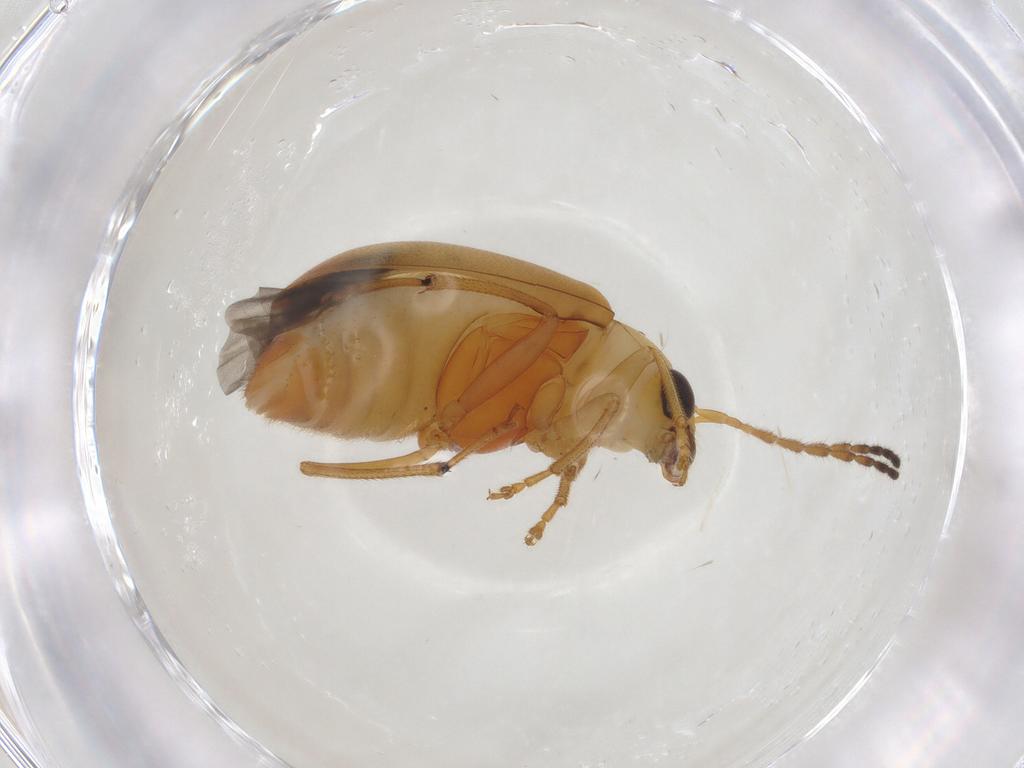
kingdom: Animalia
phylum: Arthropoda
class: Insecta
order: Coleoptera
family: Chrysomelidae
